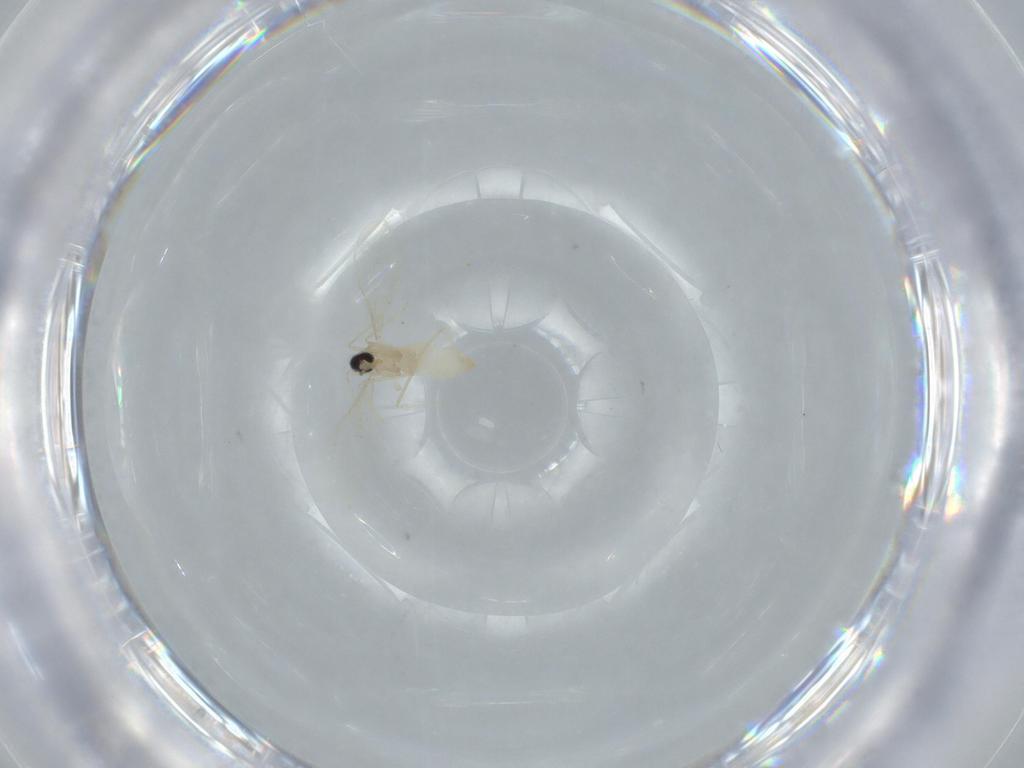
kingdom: Animalia
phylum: Arthropoda
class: Insecta
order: Diptera
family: Cecidomyiidae
